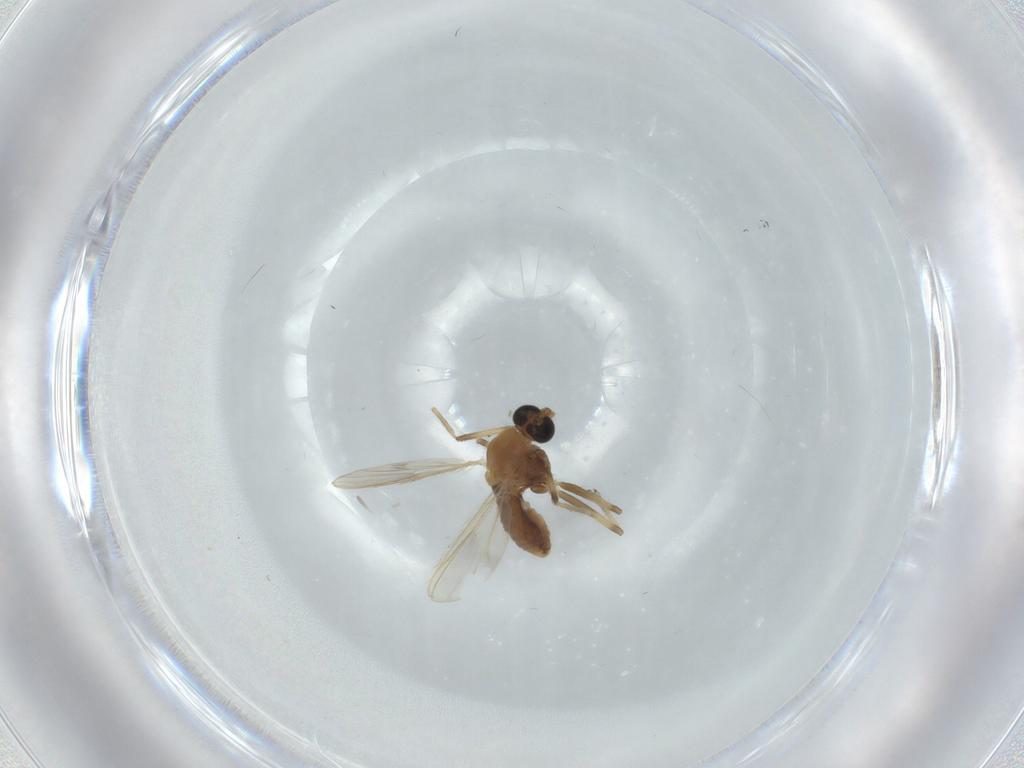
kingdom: Animalia
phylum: Arthropoda
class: Insecta
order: Diptera
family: Chironomidae
